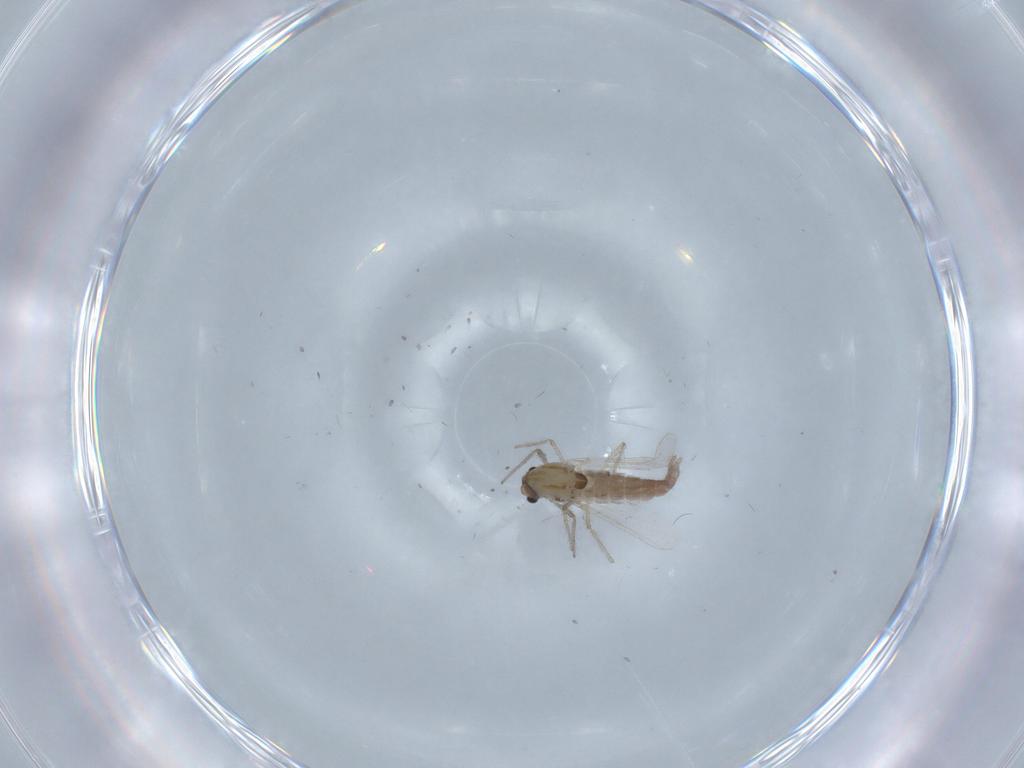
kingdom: Animalia
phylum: Arthropoda
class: Insecta
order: Diptera
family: Chironomidae
